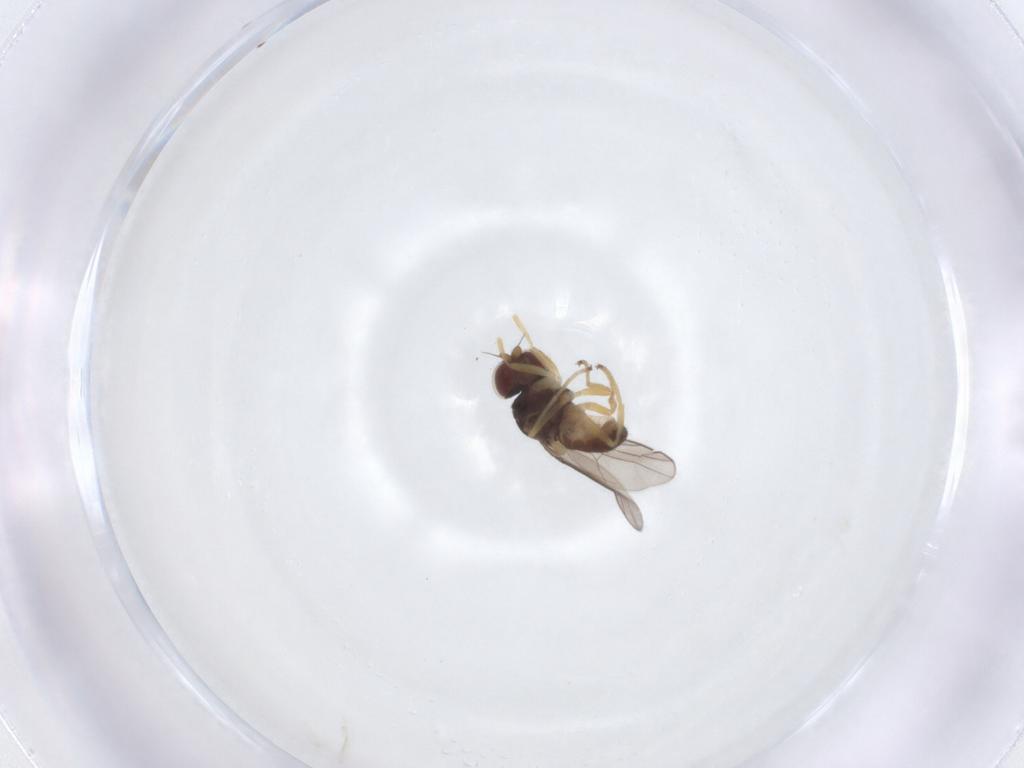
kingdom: Animalia
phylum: Arthropoda
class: Insecta
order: Diptera
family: Chloropidae
